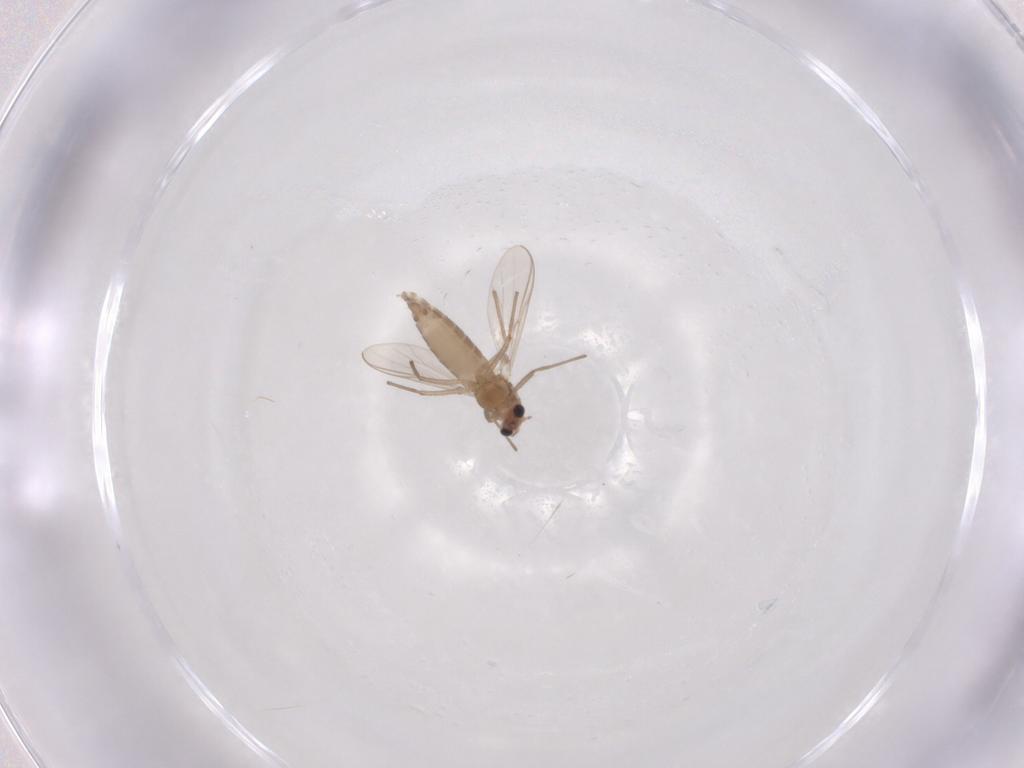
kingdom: Animalia
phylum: Arthropoda
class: Insecta
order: Diptera
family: Chironomidae
